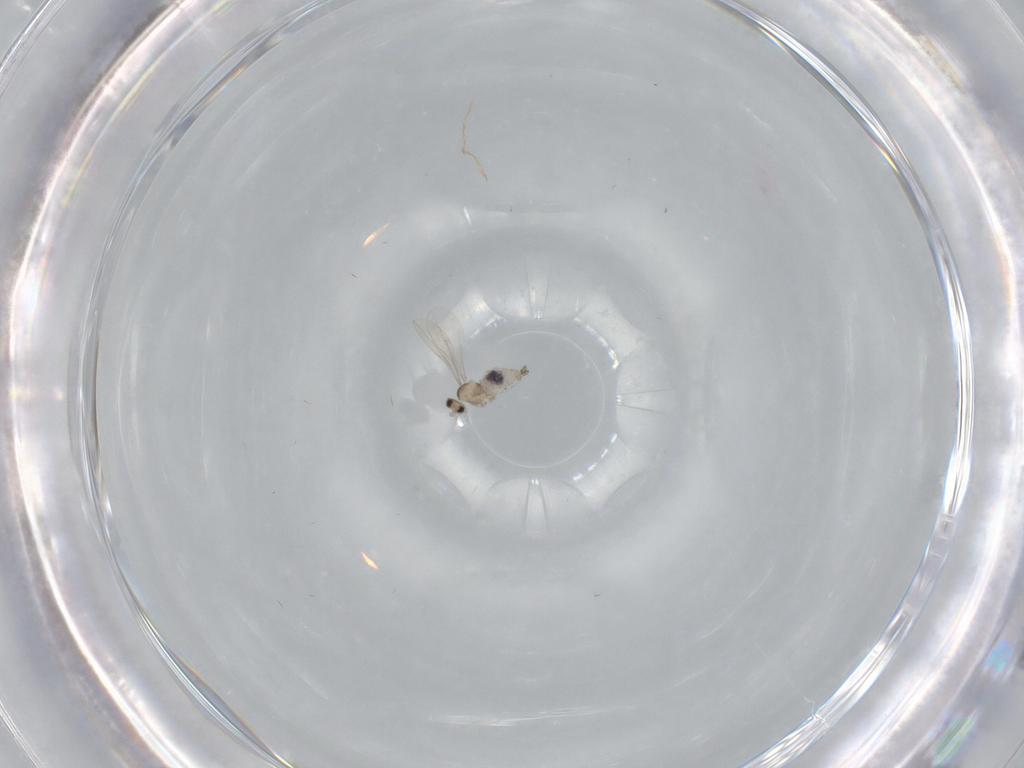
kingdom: Animalia
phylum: Arthropoda
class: Insecta
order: Diptera
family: Cecidomyiidae
